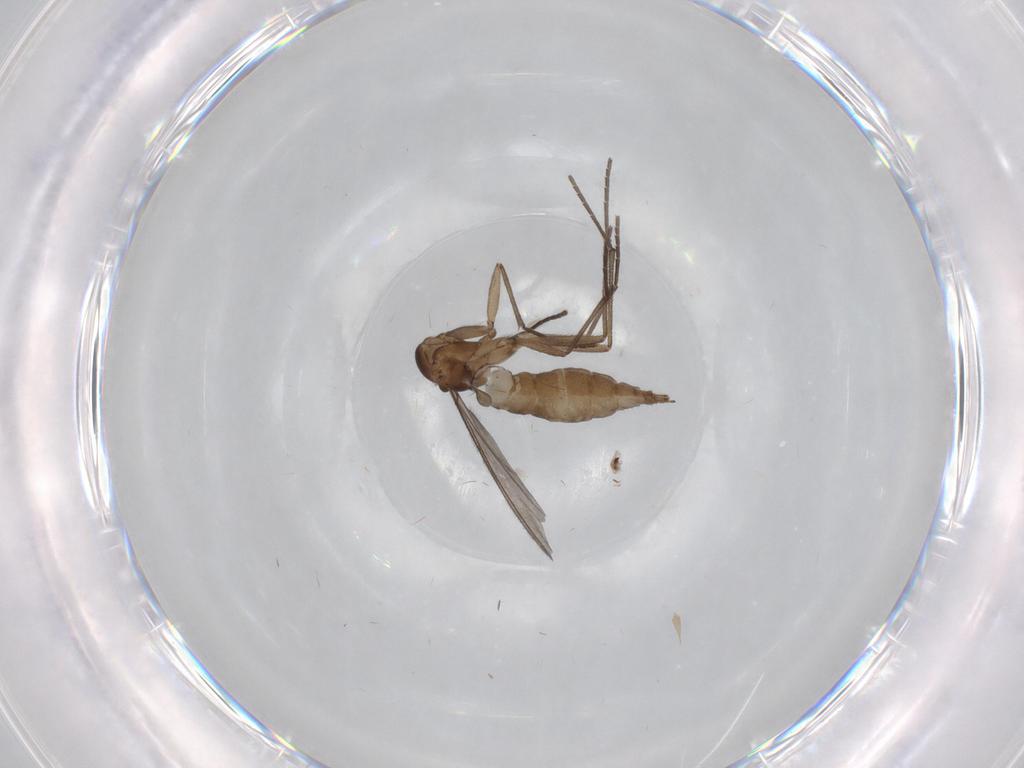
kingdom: Animalia
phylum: Arthropoda
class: Insecta
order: Diptera
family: Sciaridae
